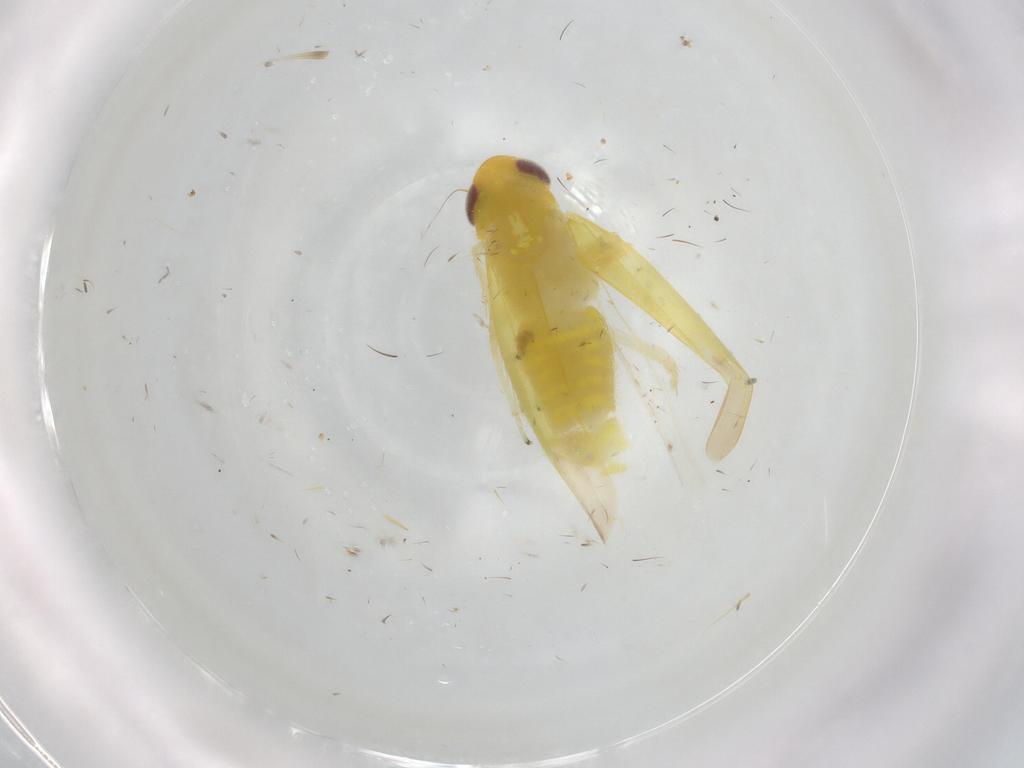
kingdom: Animalia
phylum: Arthropoda
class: Insecta
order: Hemiptera
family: Cicadellidae
